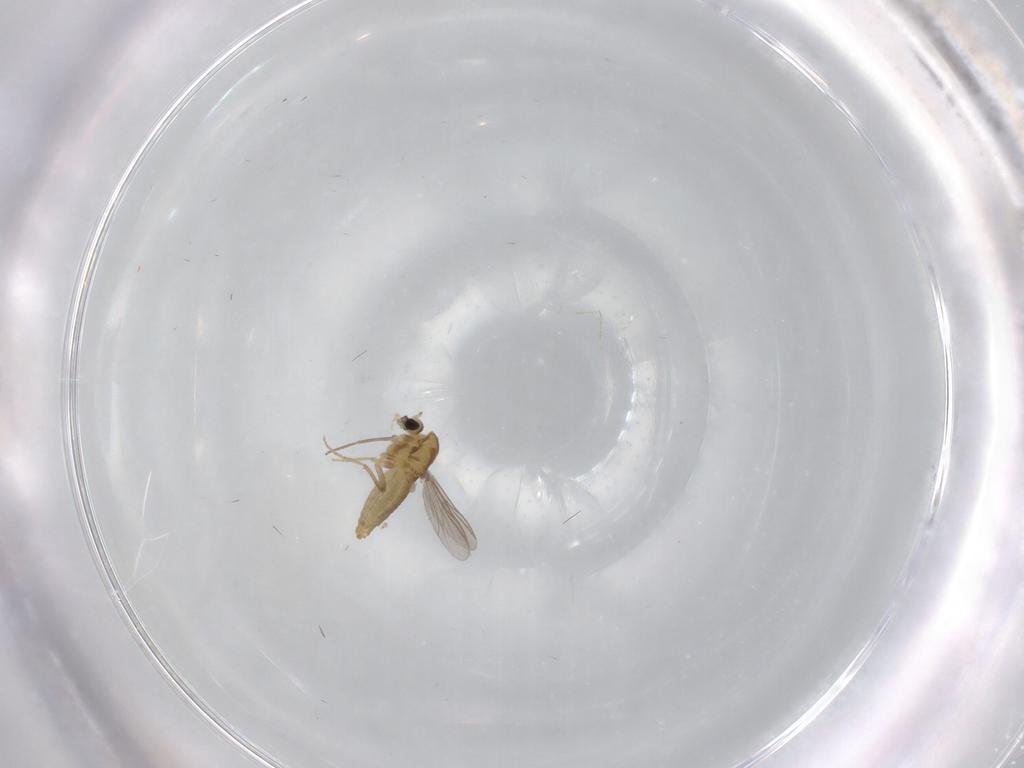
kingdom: Animalia
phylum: Arthropoda
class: Insecta
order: Diptera
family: Chironomidae
